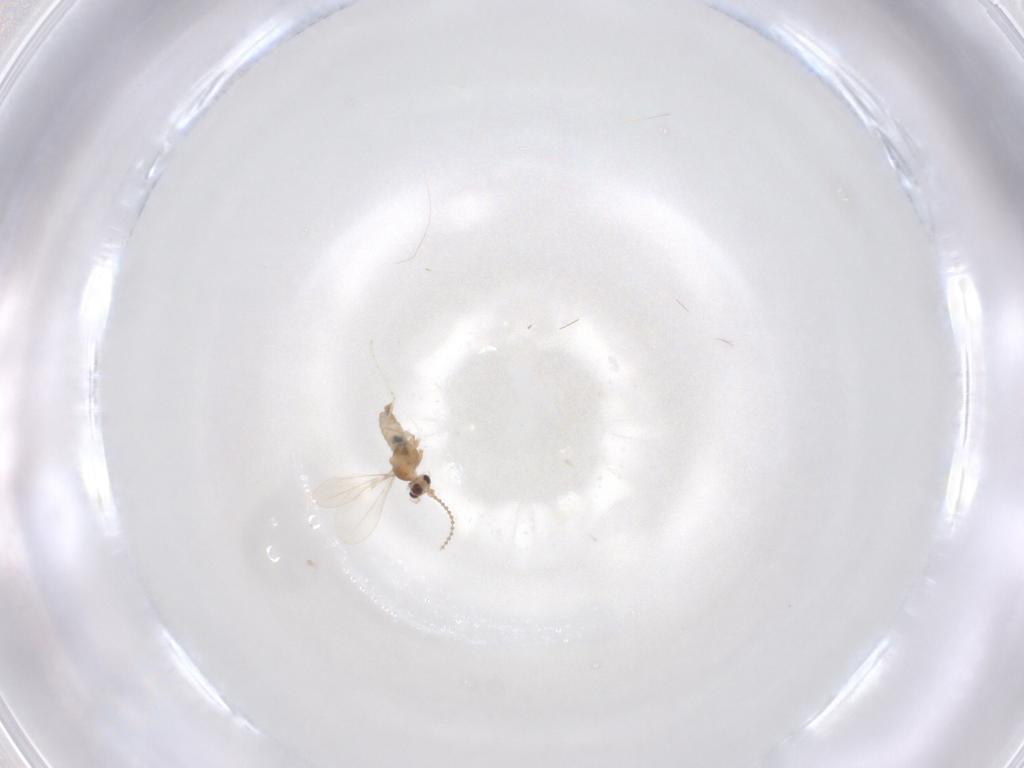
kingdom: Animalia
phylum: Arthropoda
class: Insecta
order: Diptera
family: Cecidomyiidae
